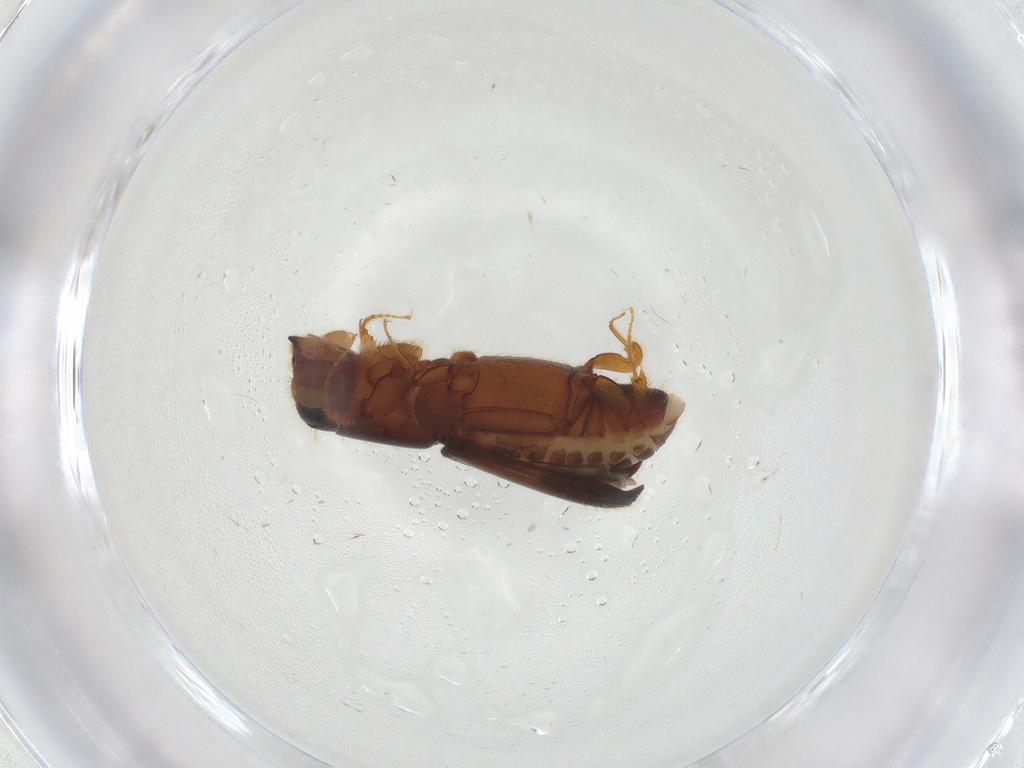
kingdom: Animalia
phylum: Arthropoda
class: Insecta
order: Coleoptera
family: Curculionidae
